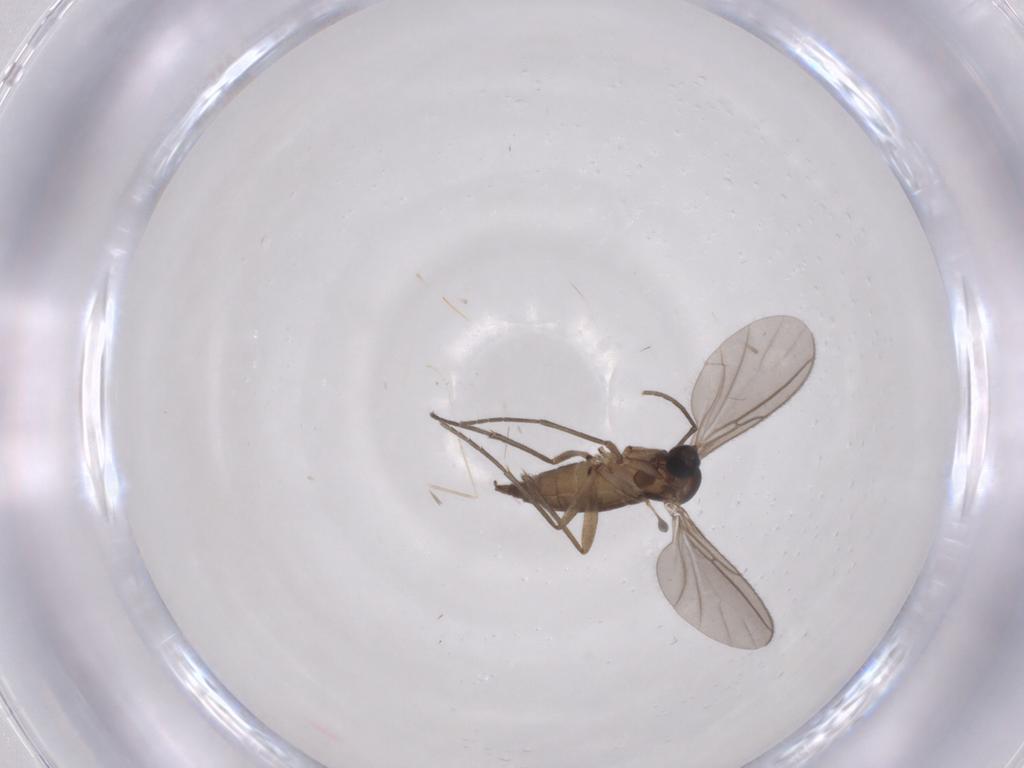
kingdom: Animalia
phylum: Arthropoda
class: Insecta
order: Diptera
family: Sciaridae
